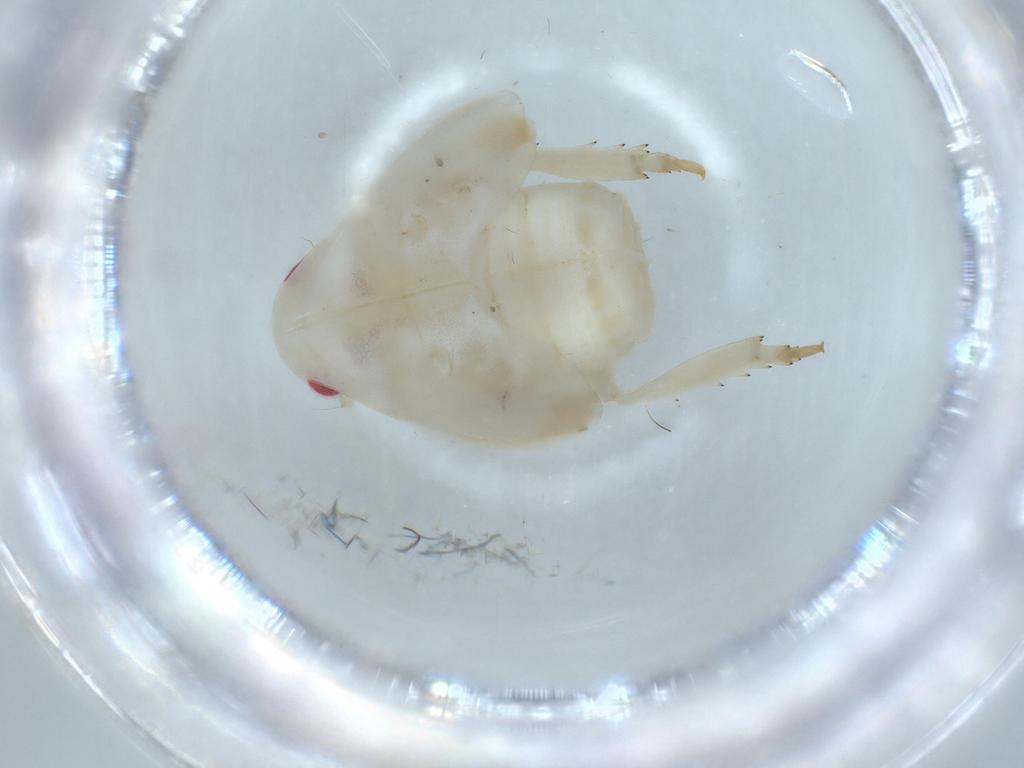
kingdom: Animalia
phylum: Arthropoda
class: Insecta
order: Hemiptera
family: Flatidae
